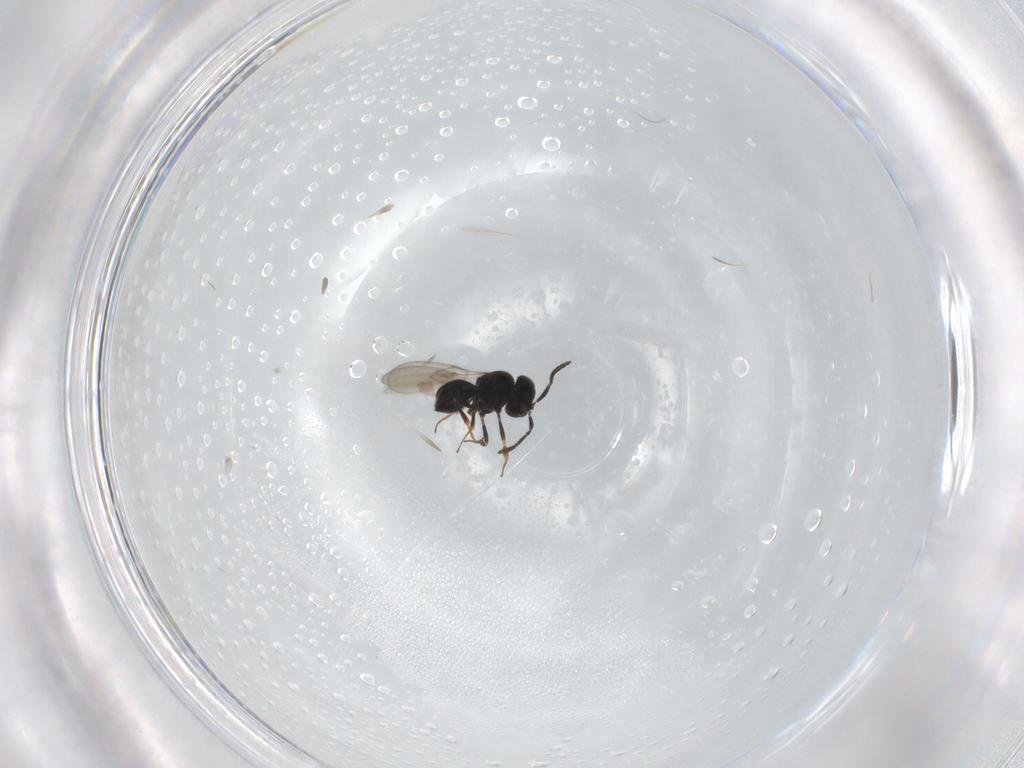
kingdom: Animalia
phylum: Arthropoda
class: Insecta
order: Hymenoptera
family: Scelionidae
